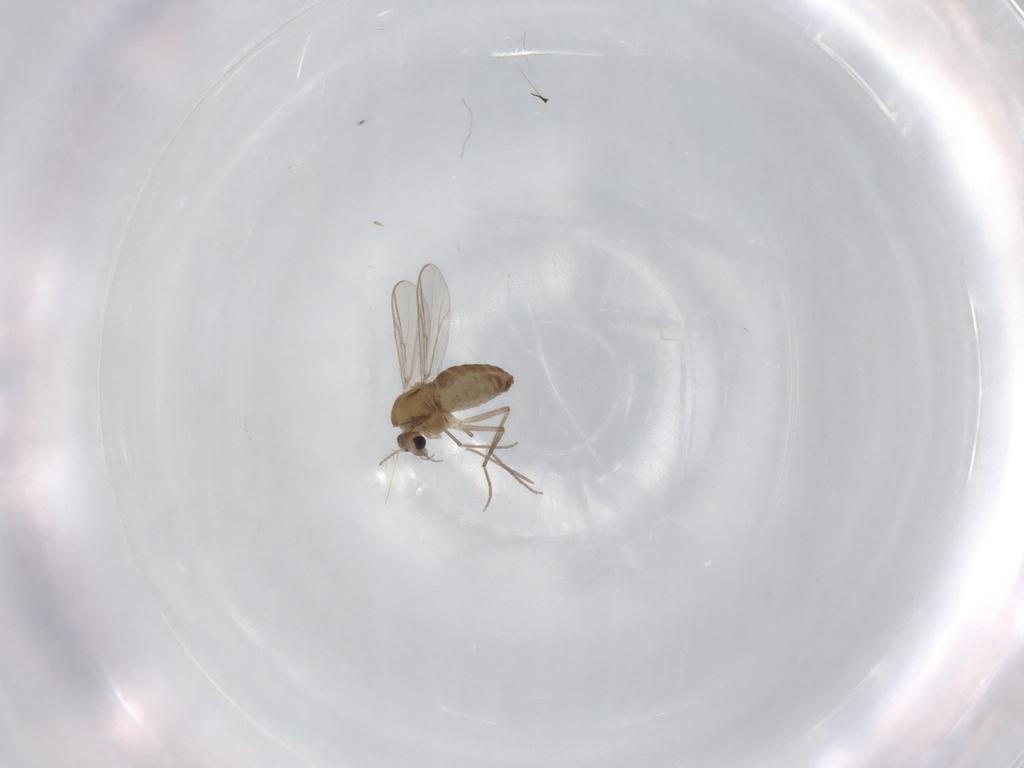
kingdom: Animalia
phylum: Arthropoda
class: Insecta
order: Diptera
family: Chironomidae
